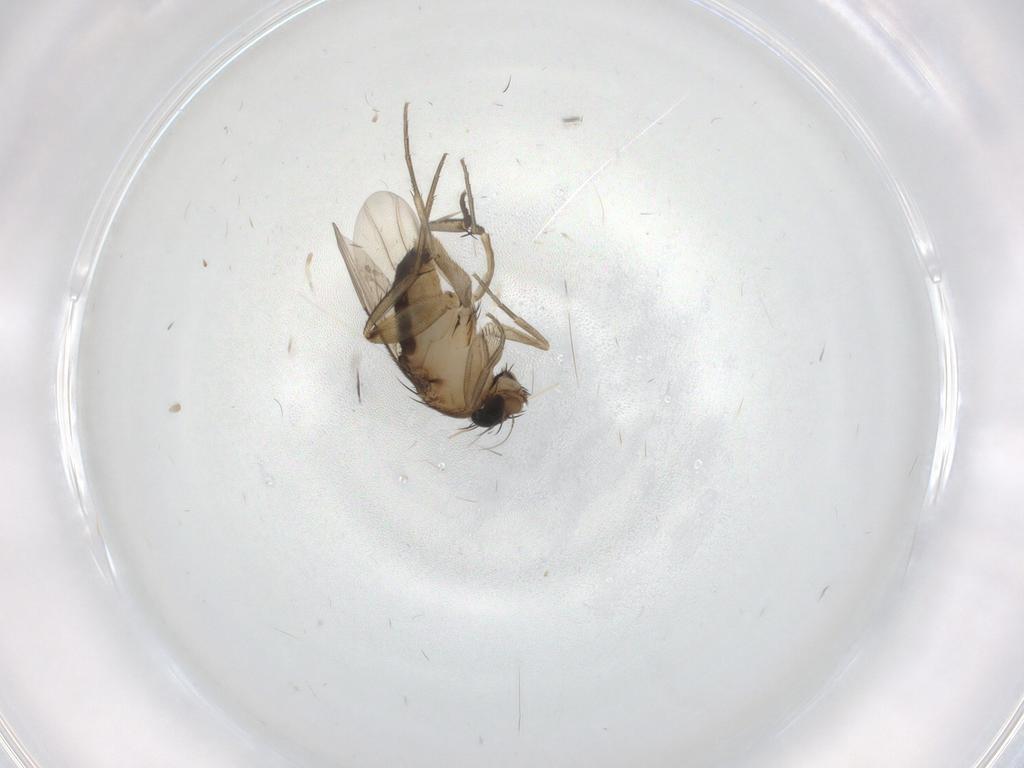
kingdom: Animalia
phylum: Arthropoda
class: Insecta
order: Diptera
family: Phoridae
